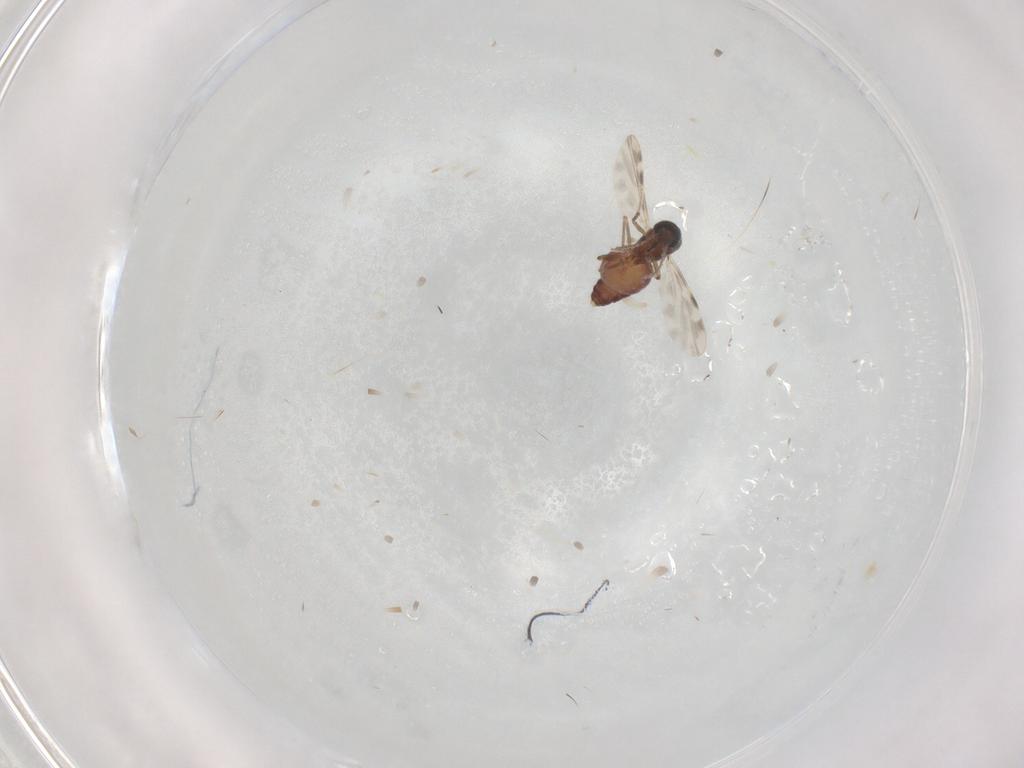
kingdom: Animalia
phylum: Arthropoda
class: Insecta
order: Diptera
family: Ceratopogonidae
